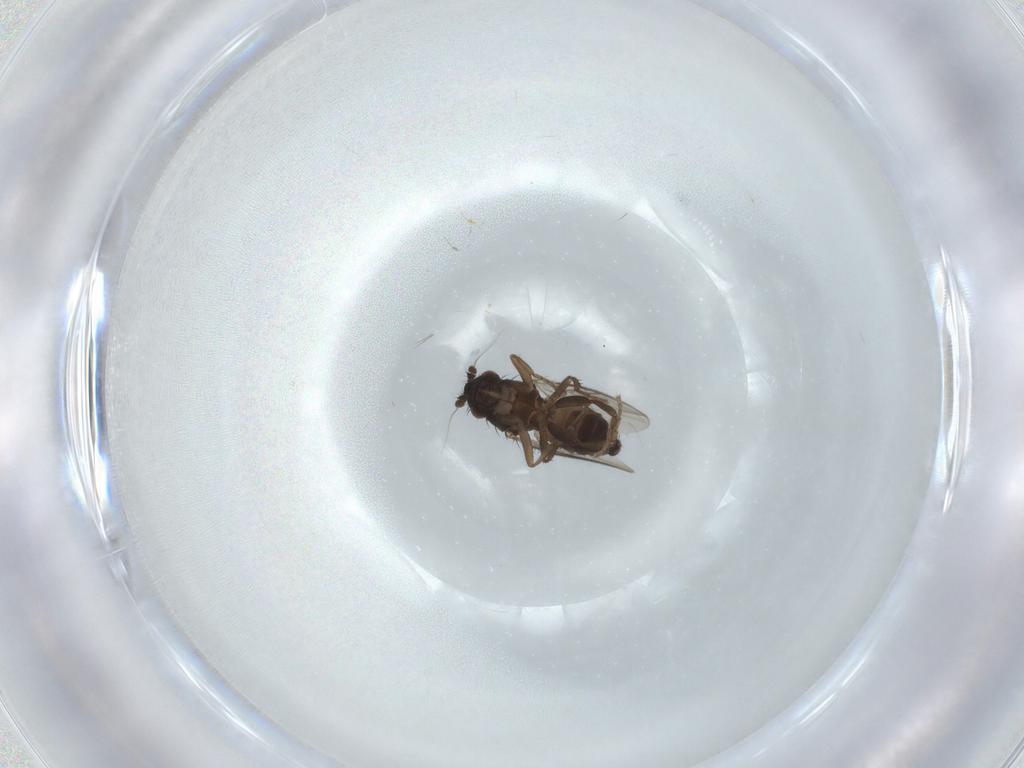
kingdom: Animalia
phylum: Arthropoda
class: Insecta
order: Diptera
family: Sphaeroceridae
